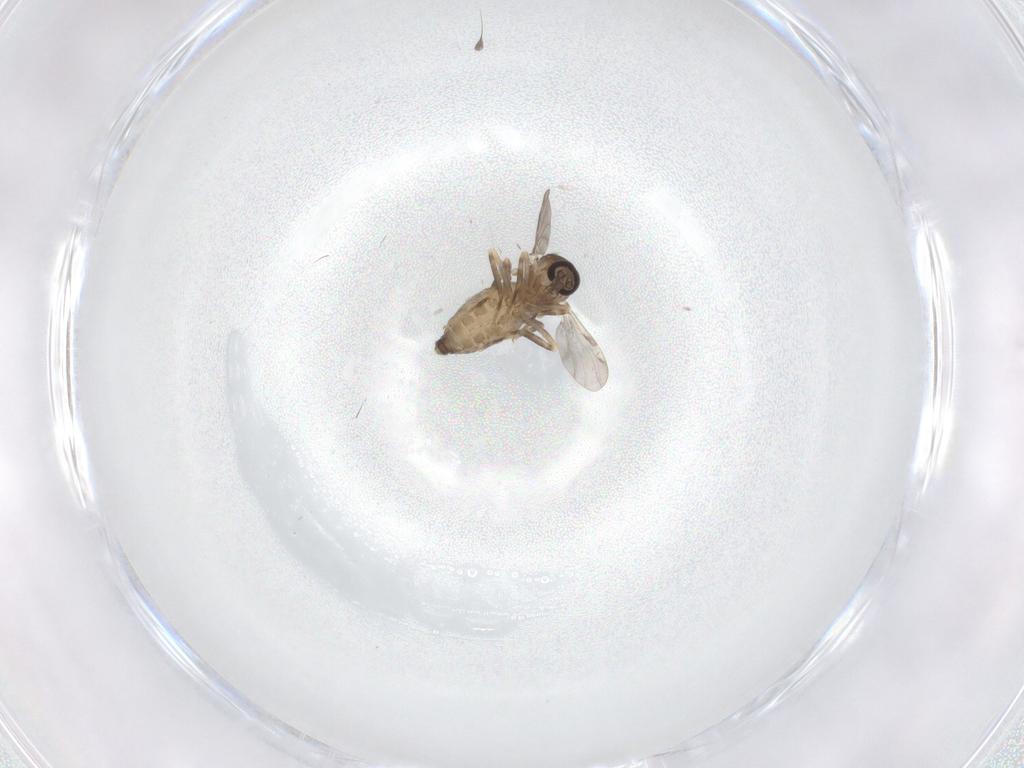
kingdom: Animalia
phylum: Arthropoda
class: Insecta
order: Diptera
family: Ceratopogonidae
